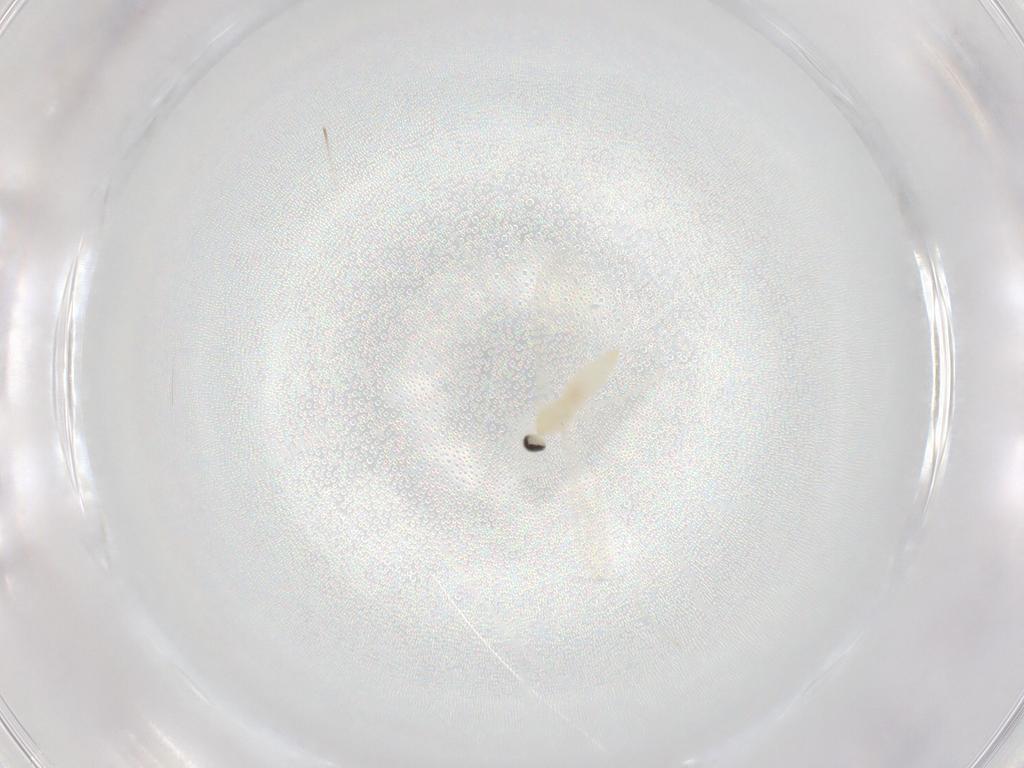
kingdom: Animalia
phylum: Arthropoda
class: Insecta
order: Diptera
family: Cecidomyiidae
